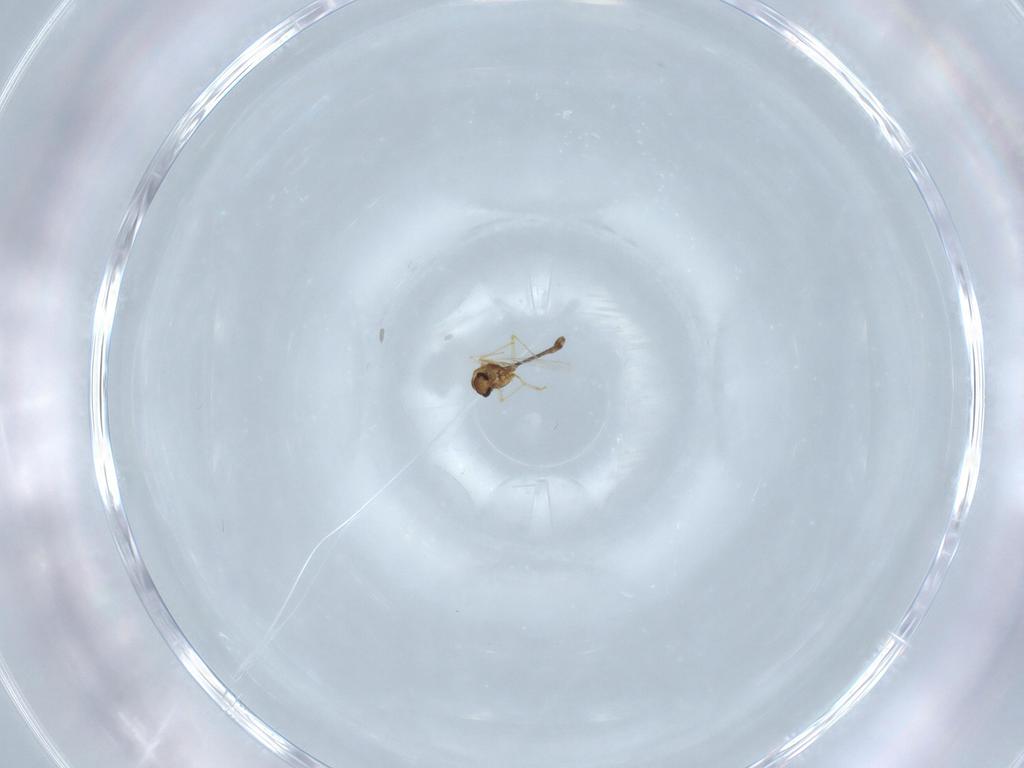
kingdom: Animalia
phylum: Arthropoda
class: Insecta
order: Diptera
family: Chironomidae
